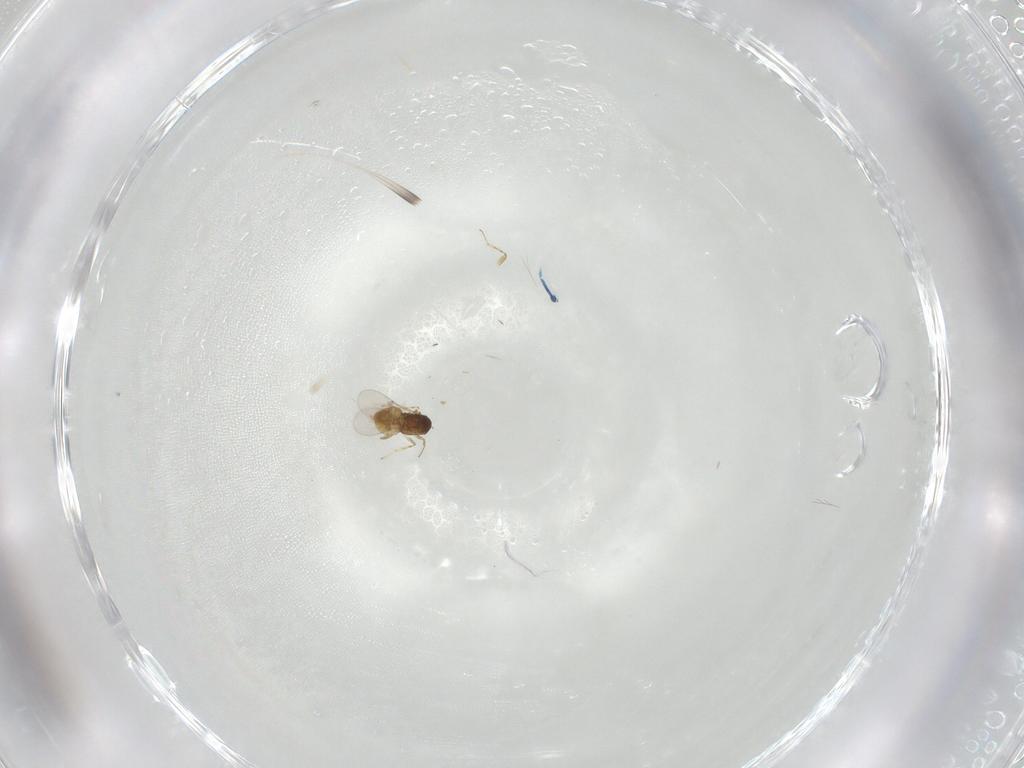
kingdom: Animalia
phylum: Arthropoda
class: Insecta
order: Hymenoptera
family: Encyrtidae
